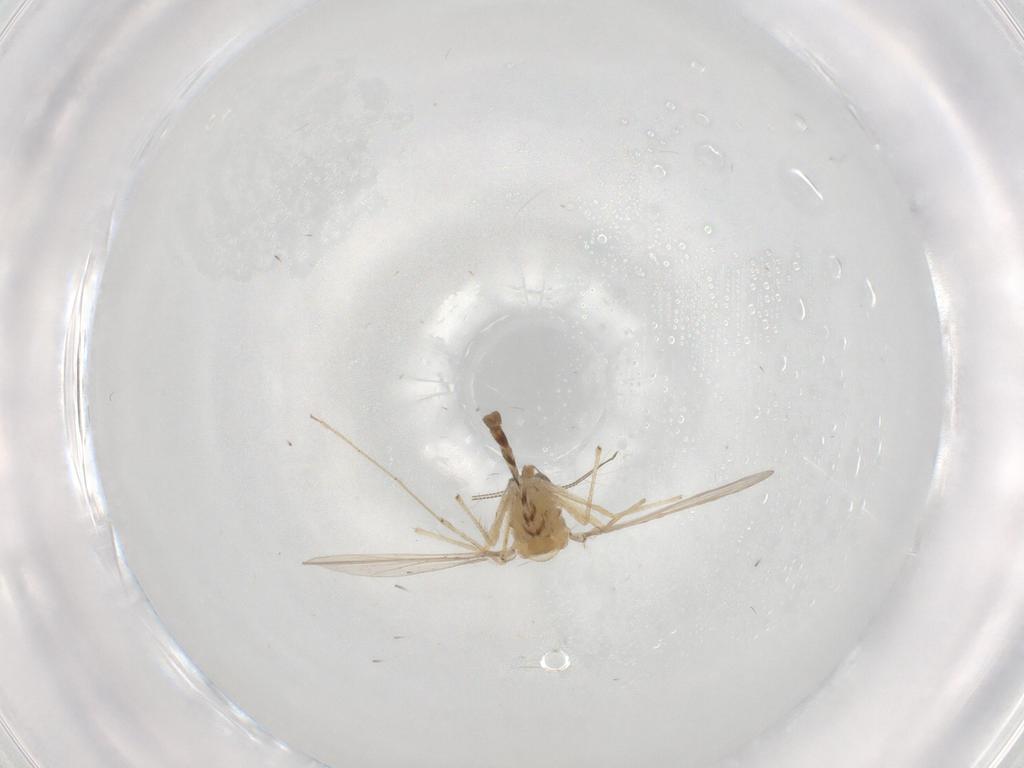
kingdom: Animalia
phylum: Arthropoda
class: Insecta
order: Diptera
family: Chironomidae
